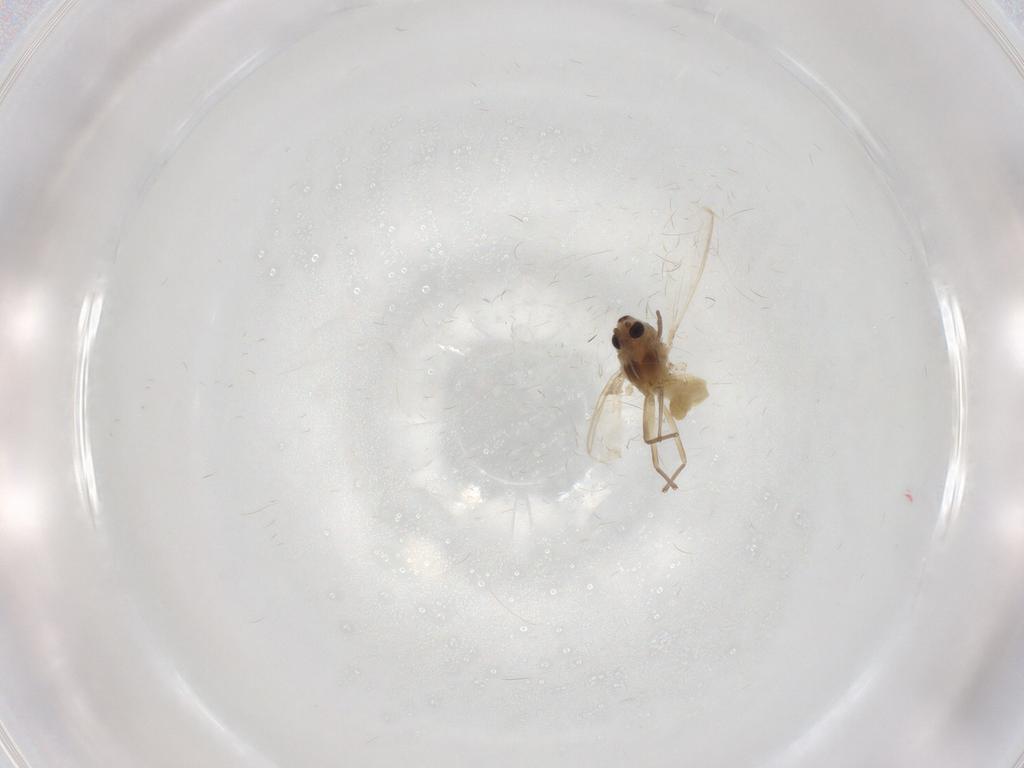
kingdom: Animalia
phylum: Arthropoda
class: Insecta
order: Diptera
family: Chironomidae
